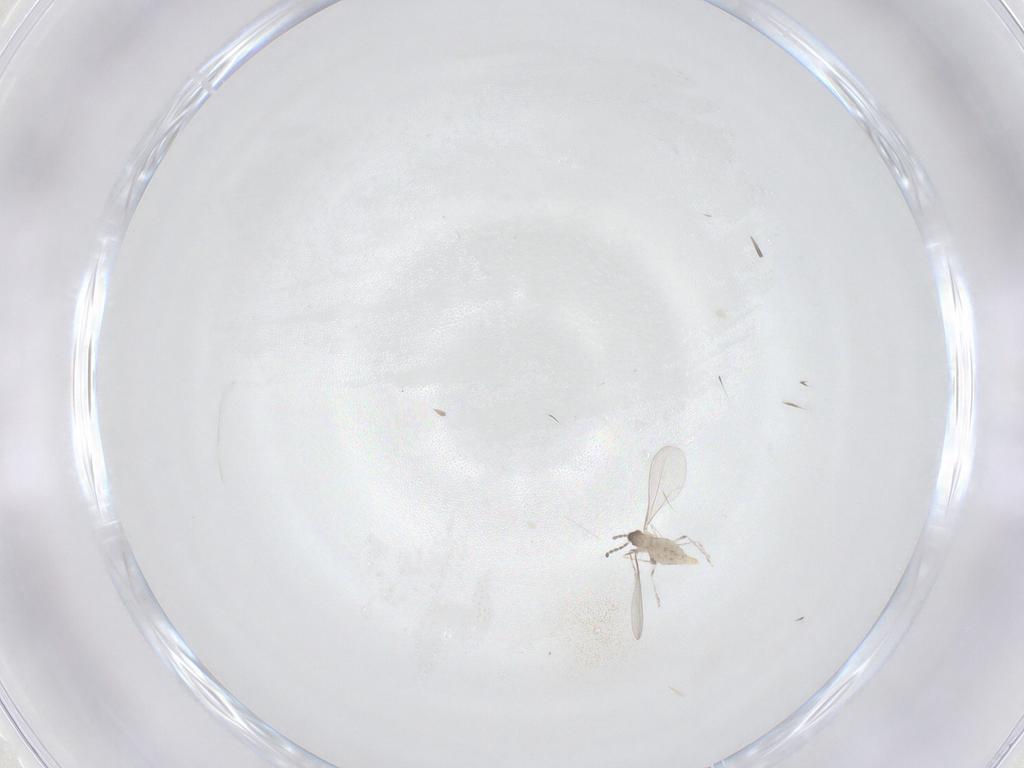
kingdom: Animalia
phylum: Arthropoda
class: Insecta
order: Diptera
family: Cecidomyiidae
